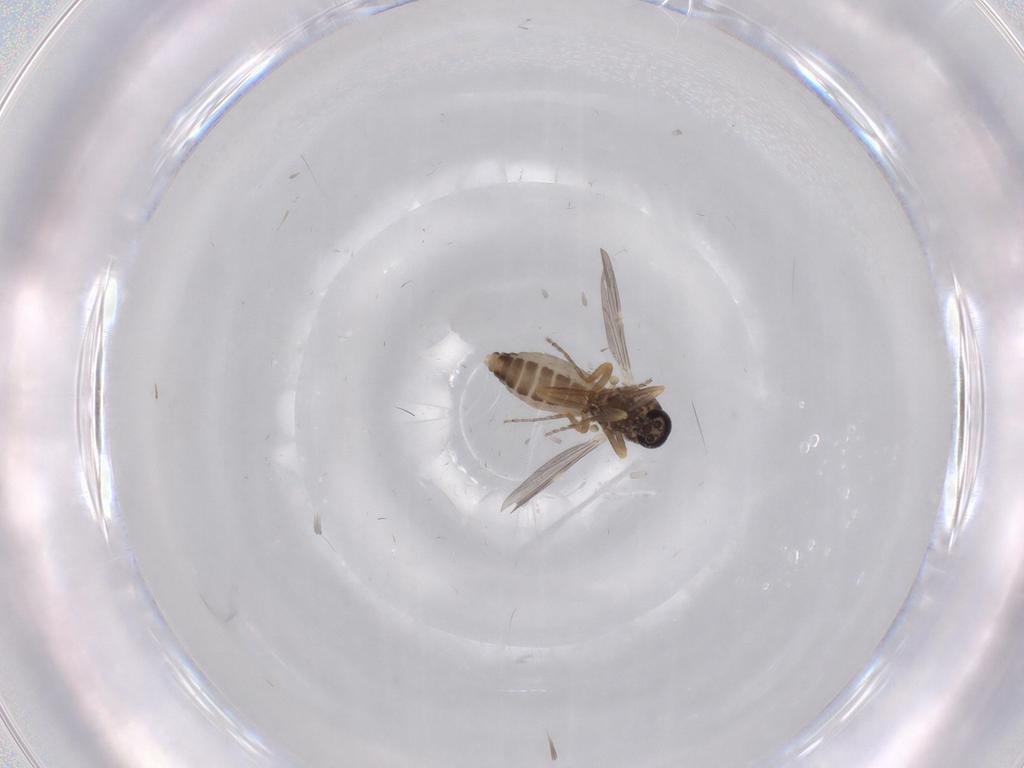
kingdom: Animalia
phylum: Arthropoda
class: Insecta
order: Diptera
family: Ceratopogonidae
